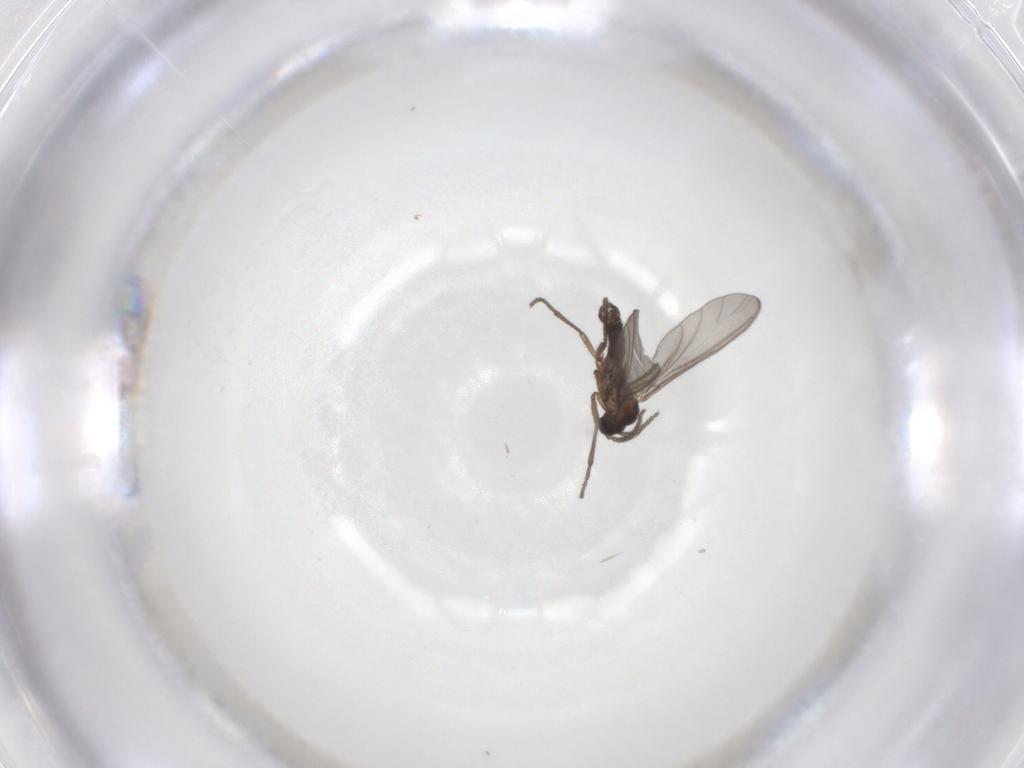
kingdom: Animalia
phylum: Arthropoda
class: Insecta
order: Diptera
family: Sciaridae
